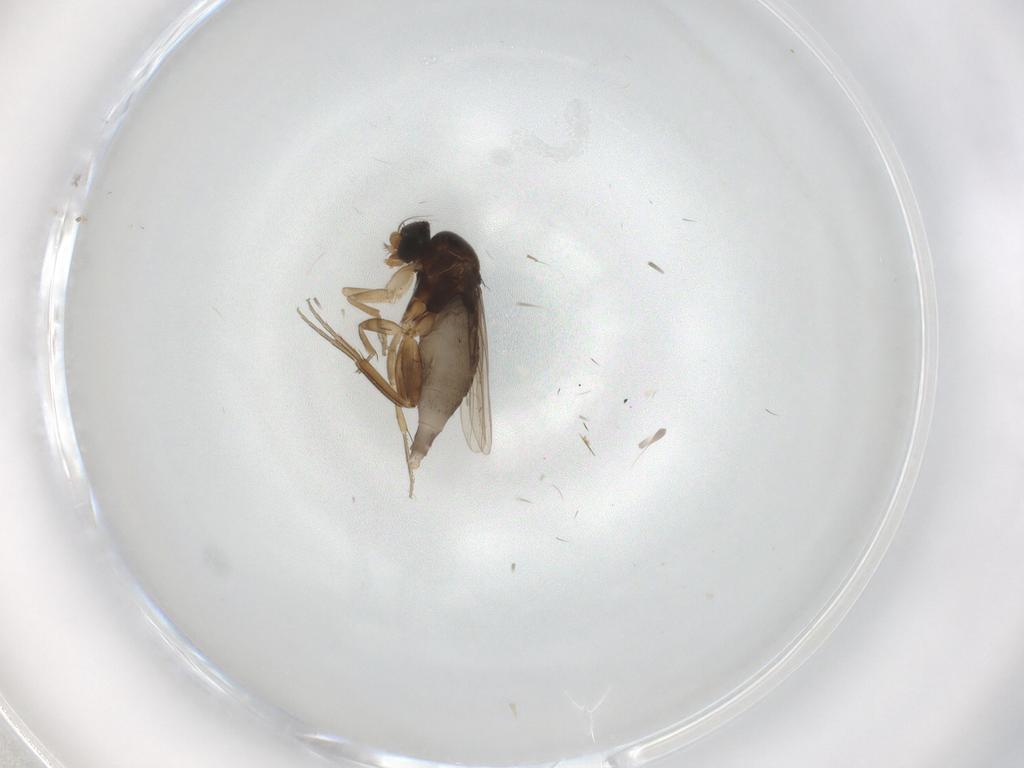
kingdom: Animalia
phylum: Arthropoda
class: Insecta
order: Diptera
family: Phoridae
